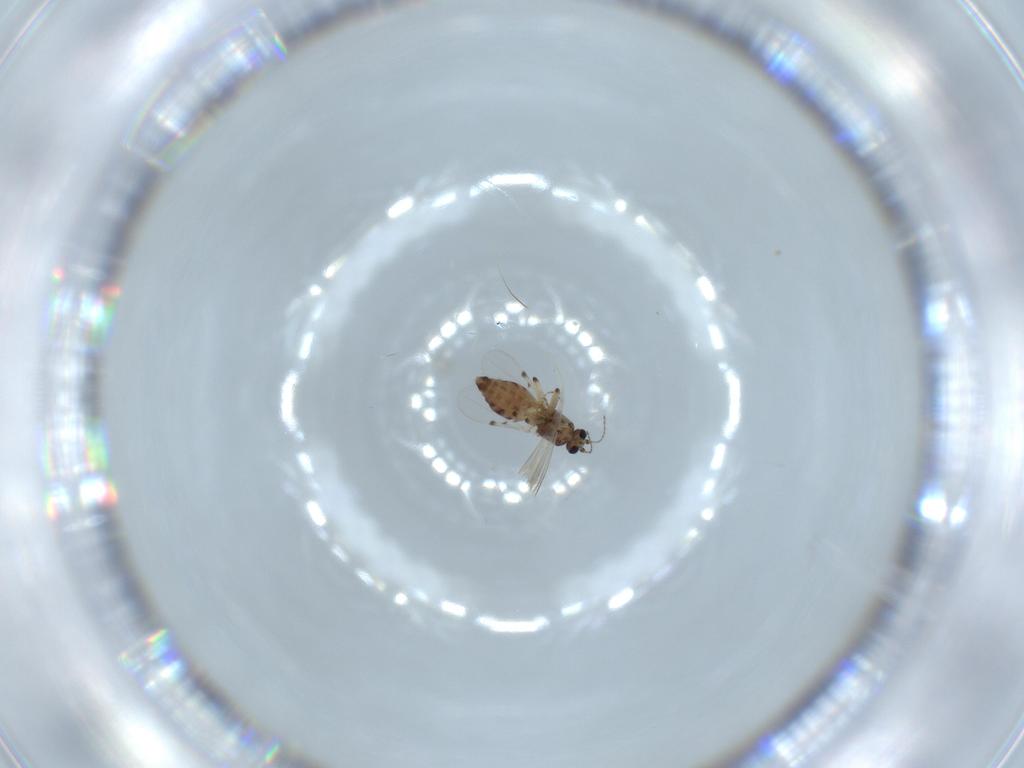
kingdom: Animalia
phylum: Arthropoda
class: Insecta
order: Diptera
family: Ceratopogonidae
